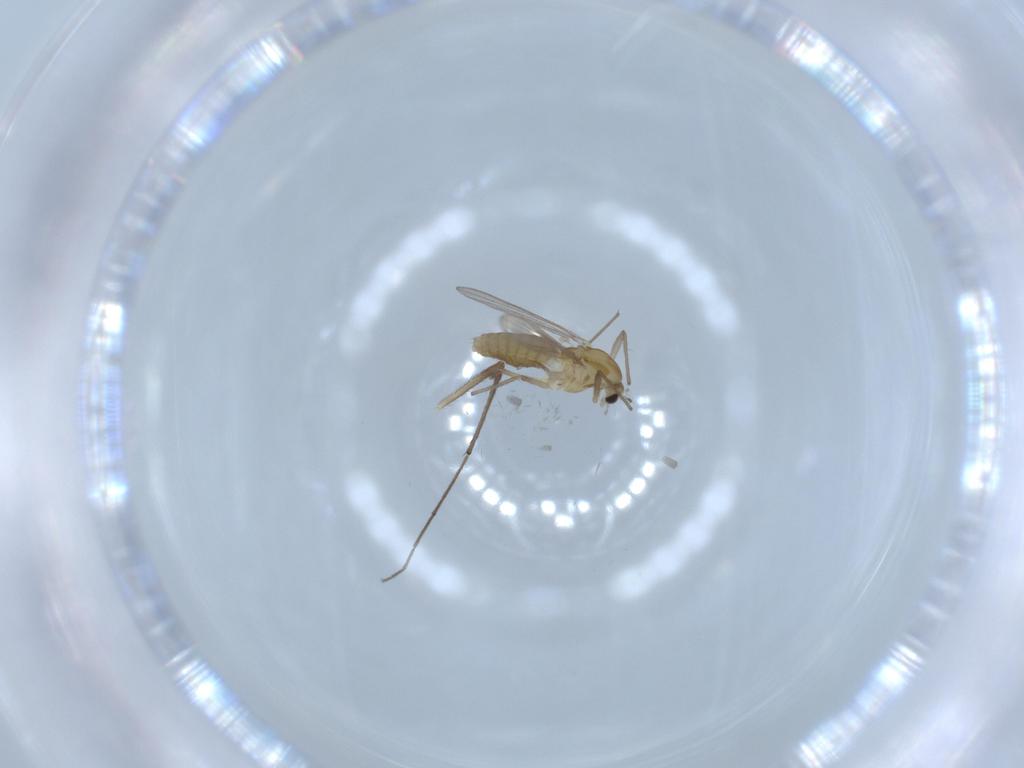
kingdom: Animalia
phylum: Arthropoda
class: Insecta
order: Diptera
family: Chironomidae
